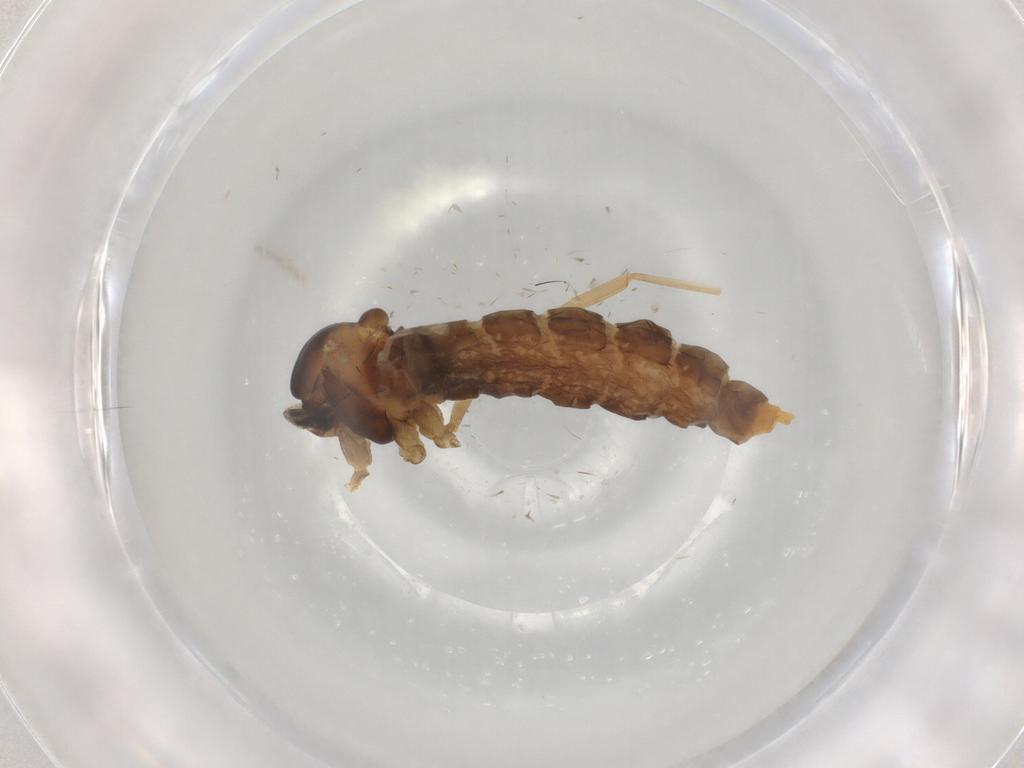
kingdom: Animalia
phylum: Arthropoda
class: Insecta
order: Diptera
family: Cecidomyiidae
